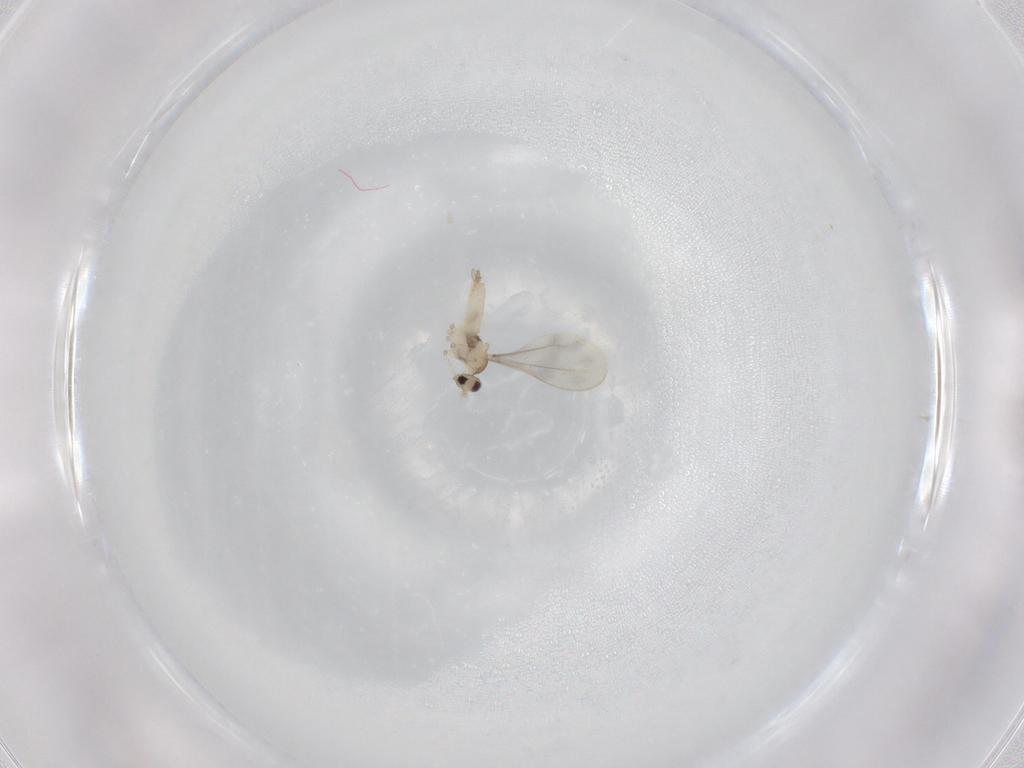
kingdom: Animalia
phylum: Arthropoda
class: Insecta
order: Diptera
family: Cecidomyiidae
